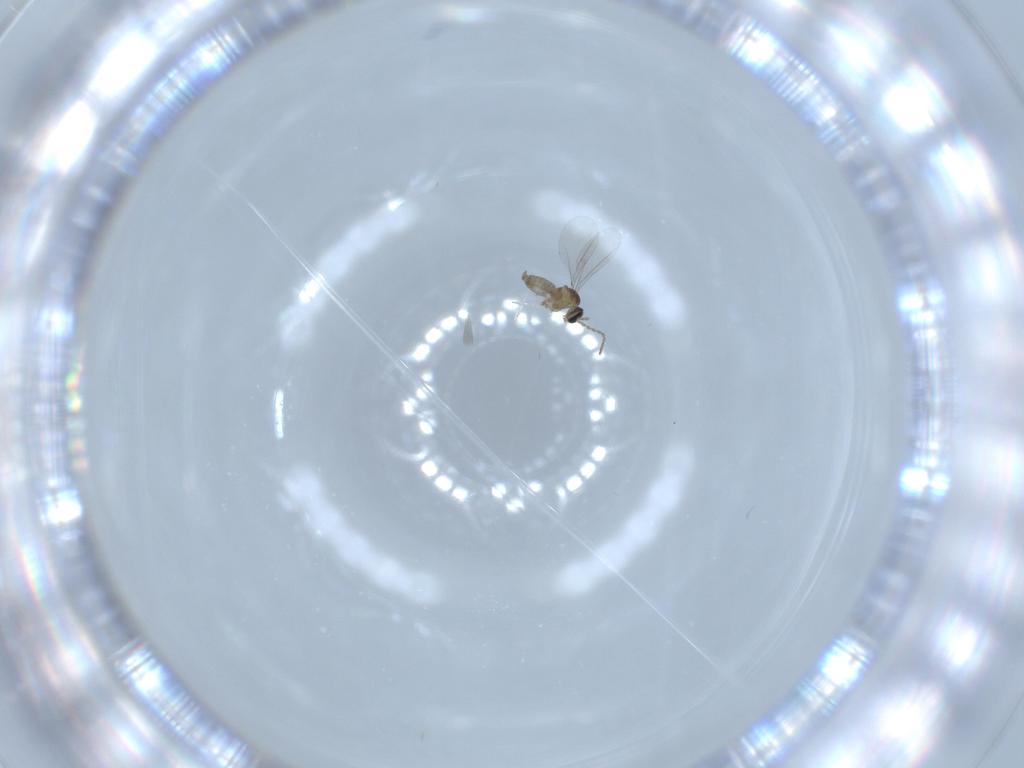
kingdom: Animalia
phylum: Arthropoda
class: Insecta
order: Diptera
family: Cecidomyiidae
